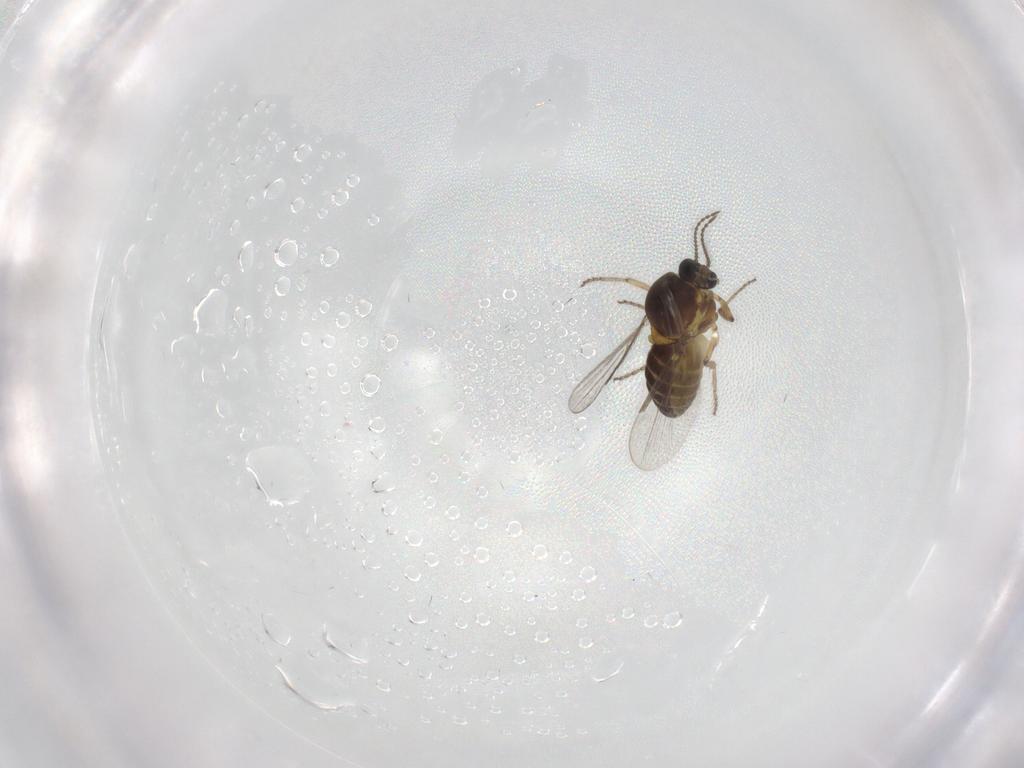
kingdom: Animalia
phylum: Arthropoda
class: Insecta
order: Diptera
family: Ceratopogonidae
